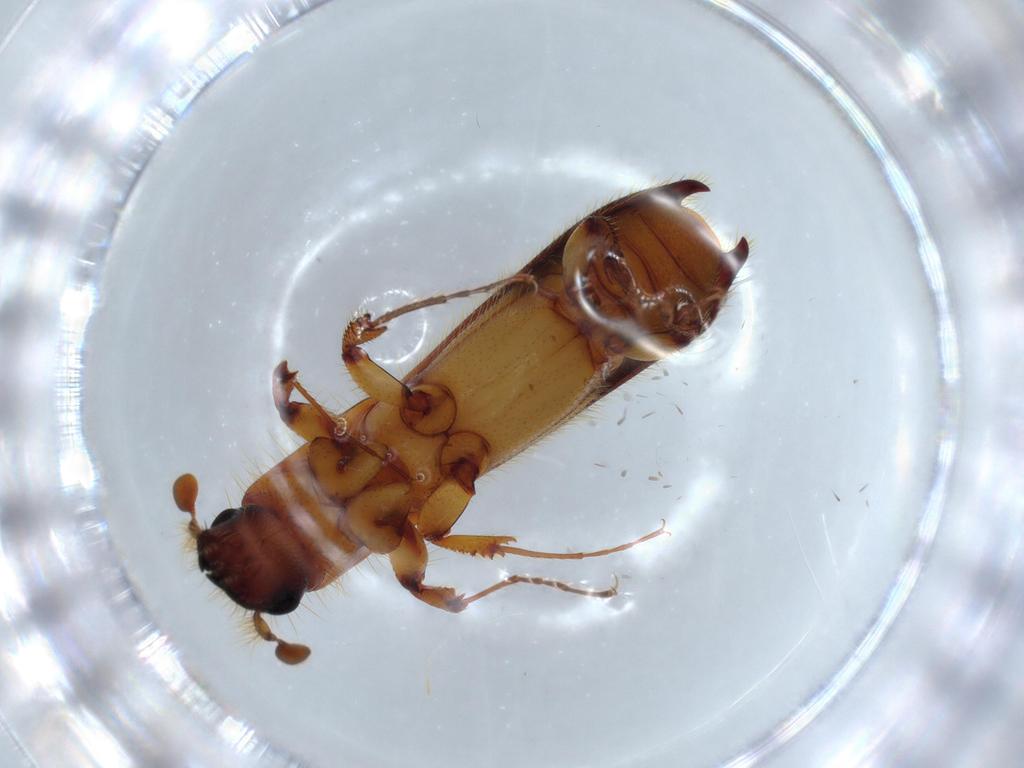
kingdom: Animalia
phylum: Arthropoda
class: Insecta
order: Coleoptera
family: Curculionidae
